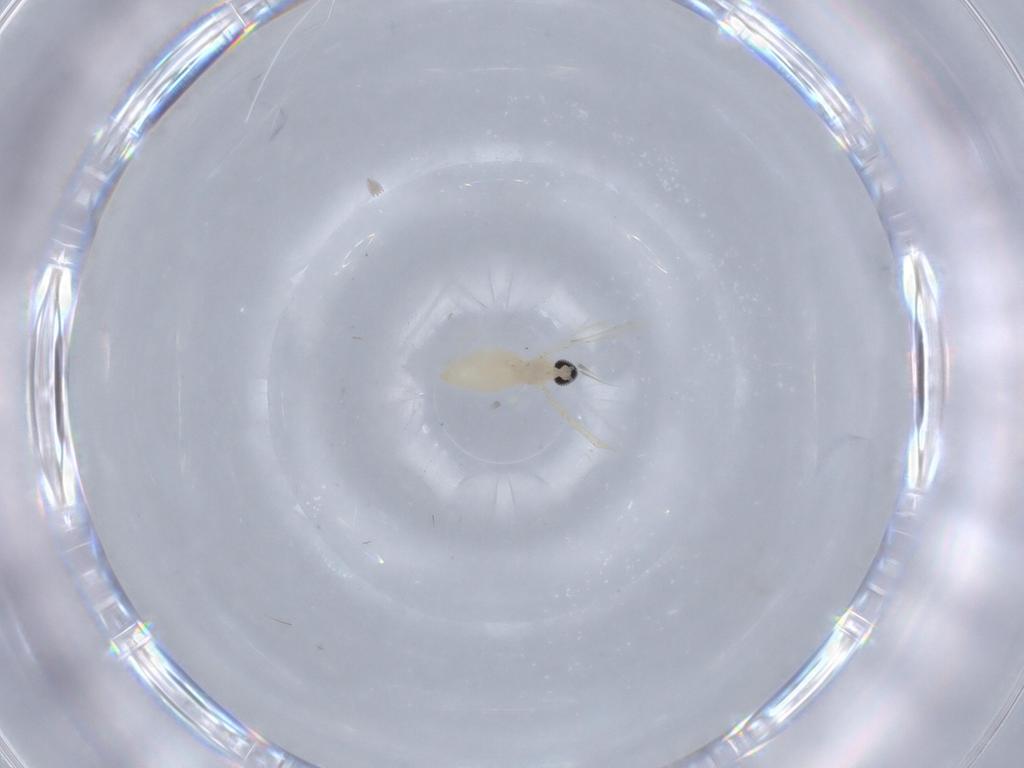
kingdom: Animalia
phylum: Arthropoda
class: Insecta
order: Diptera
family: Cecidomyiidae
